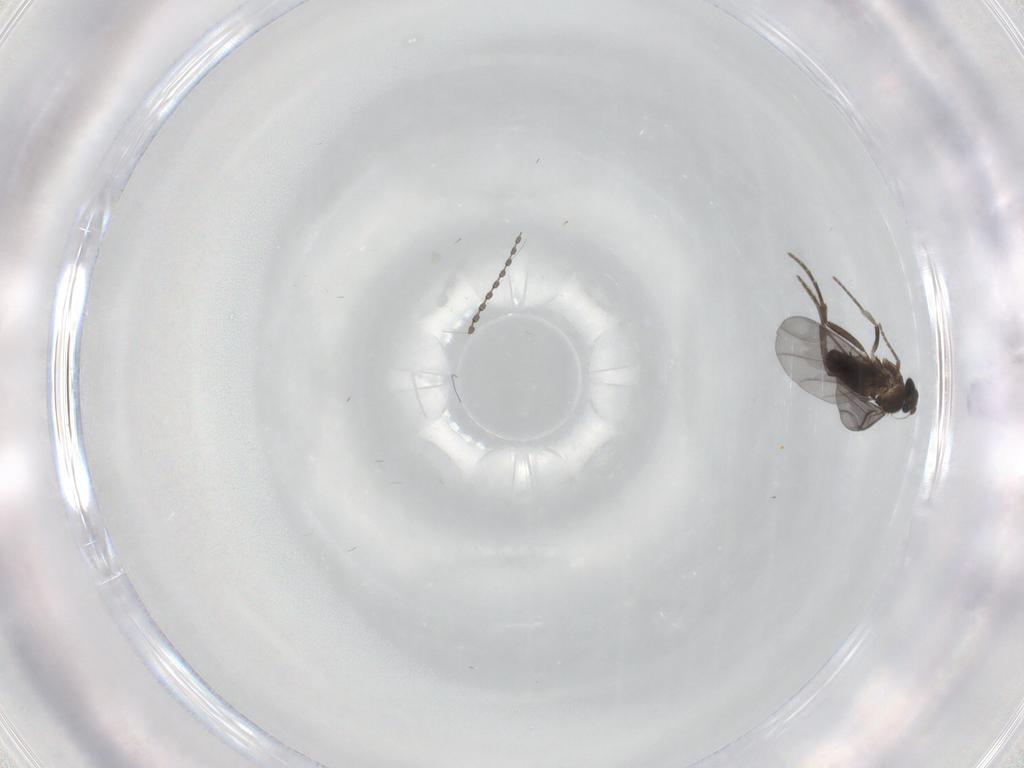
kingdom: Animalia
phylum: Arthropoda
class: Insecta
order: Diptera
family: Phoridae
